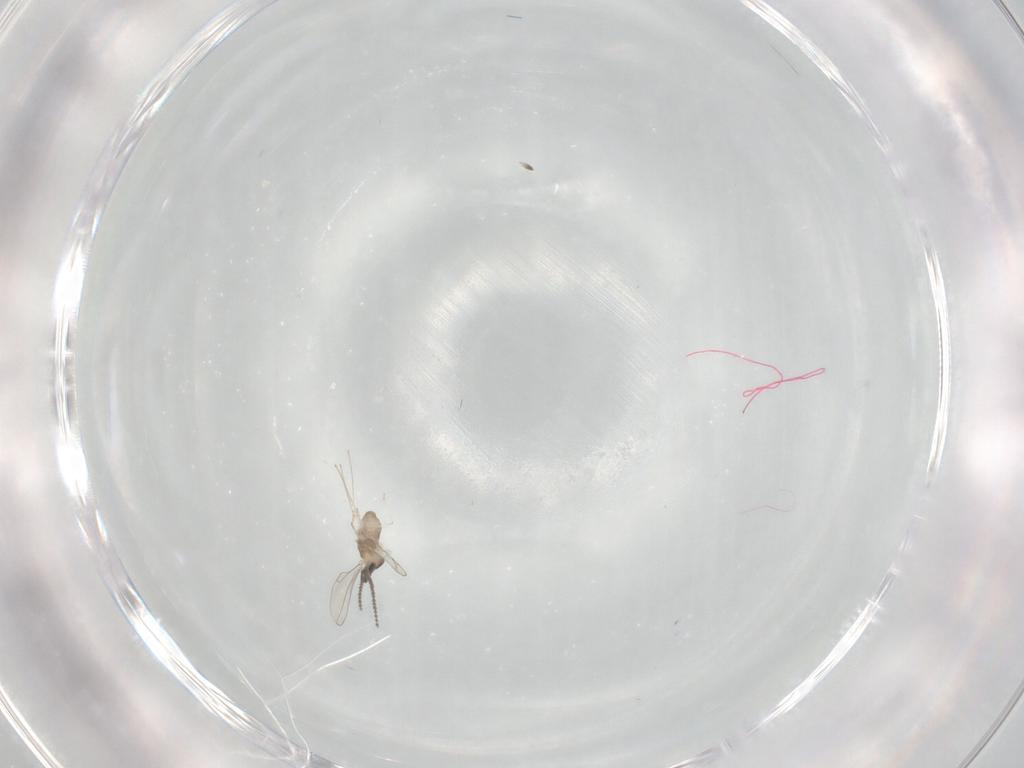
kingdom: Animalia
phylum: Arthropoda
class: Insecta
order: Diptera
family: Cecidomyiidae
